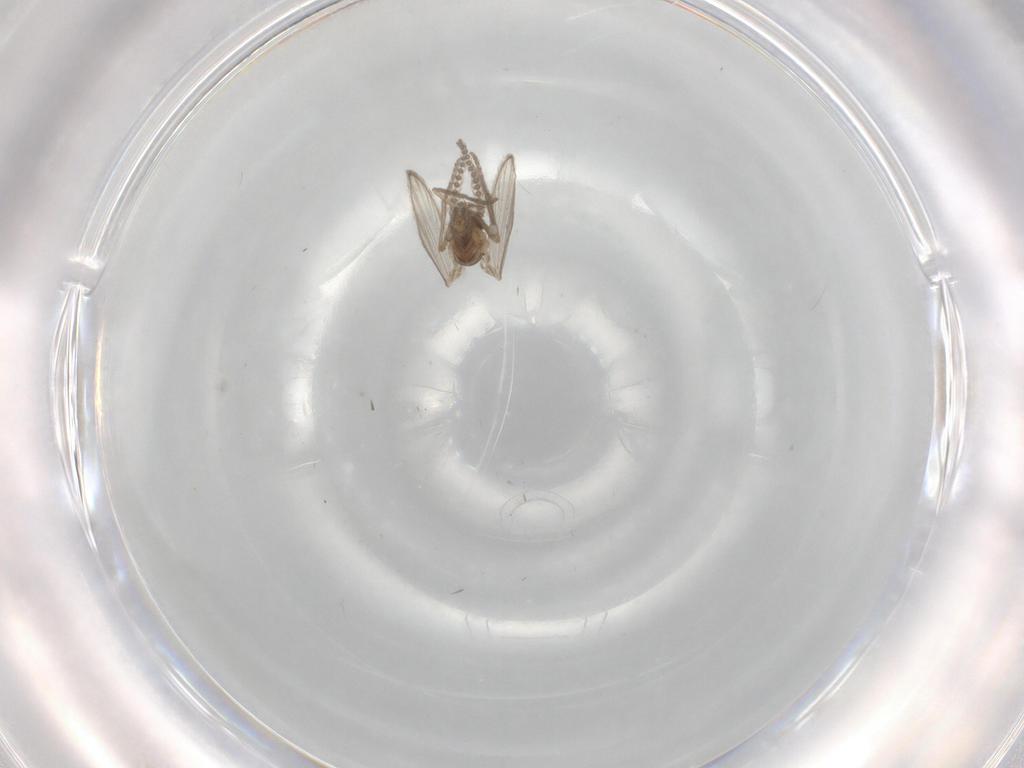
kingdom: Animalia
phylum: Arthropoda
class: Insecta
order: Diptera
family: Psychodidae
